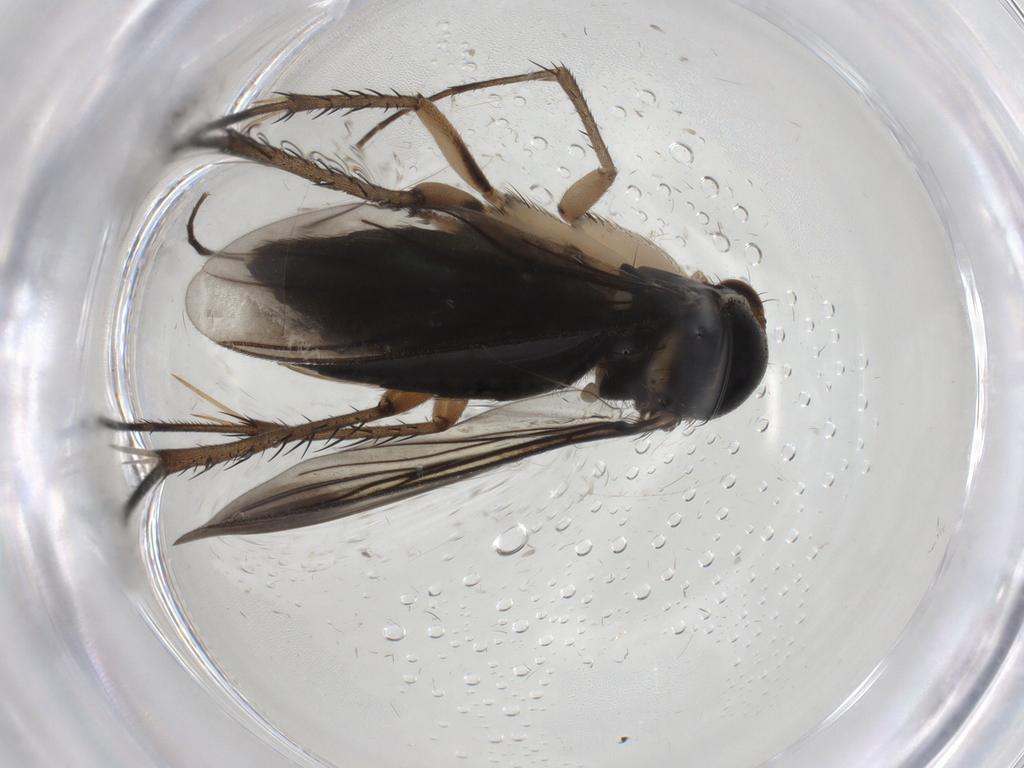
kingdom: Animalia
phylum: Arthropoda
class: Insecta
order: Diptera
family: Mycetophilidae
